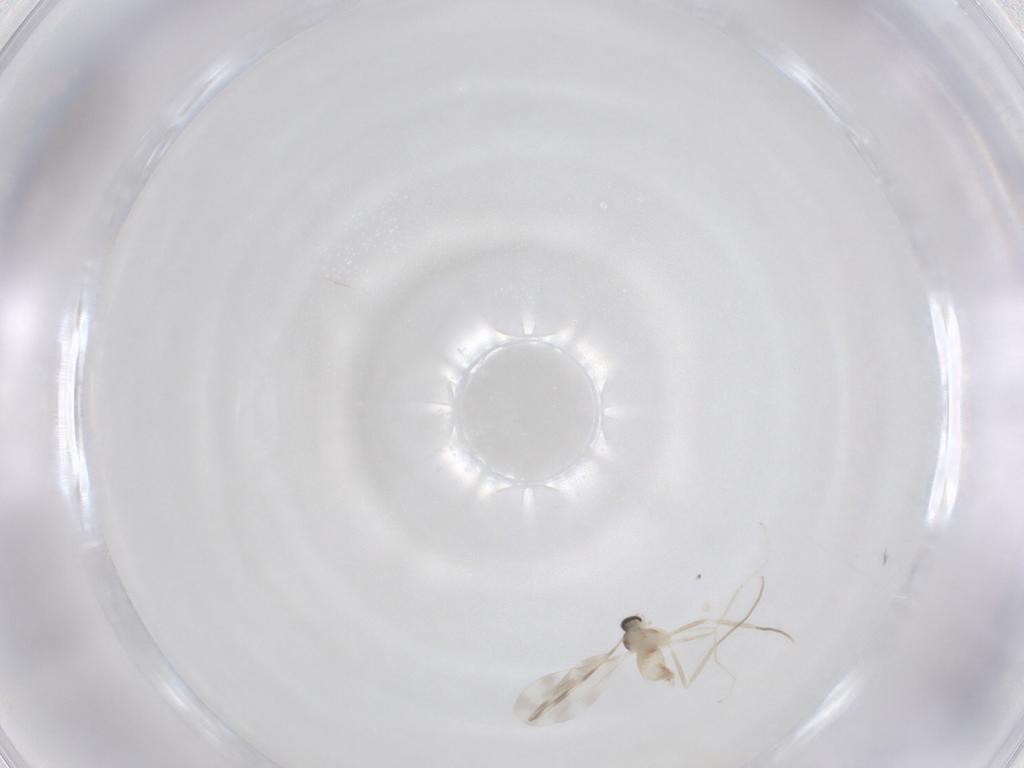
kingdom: Animalia
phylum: Arthropoda
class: Insecta
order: Diptera
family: Cecidomyiidae
